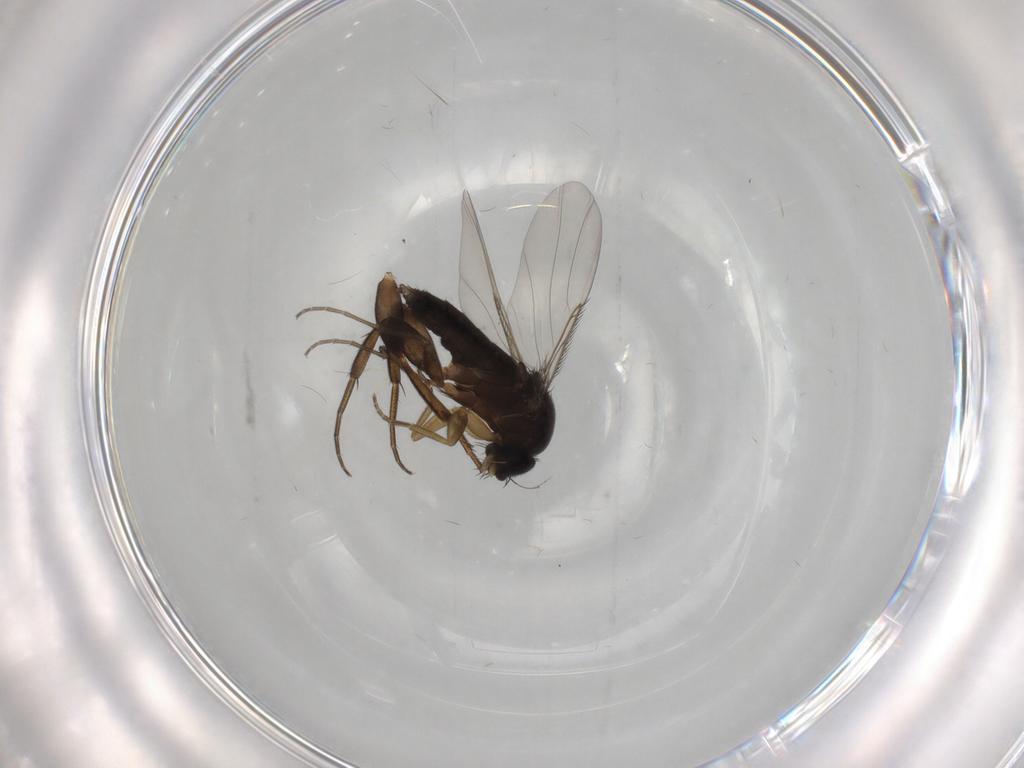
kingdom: Animalia
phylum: Arthropoda
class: Insecta
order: Diptera
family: Phoridae
